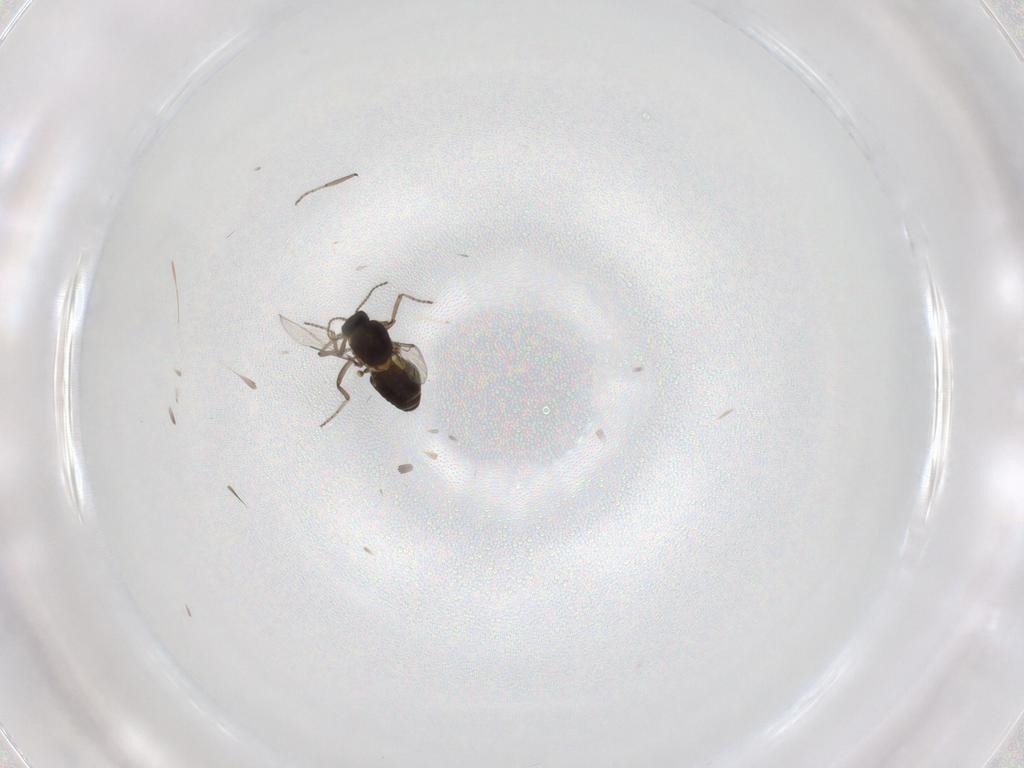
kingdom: Animalia
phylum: Arthropoda
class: Insecta
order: Diptera
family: Ceratopogonidae
